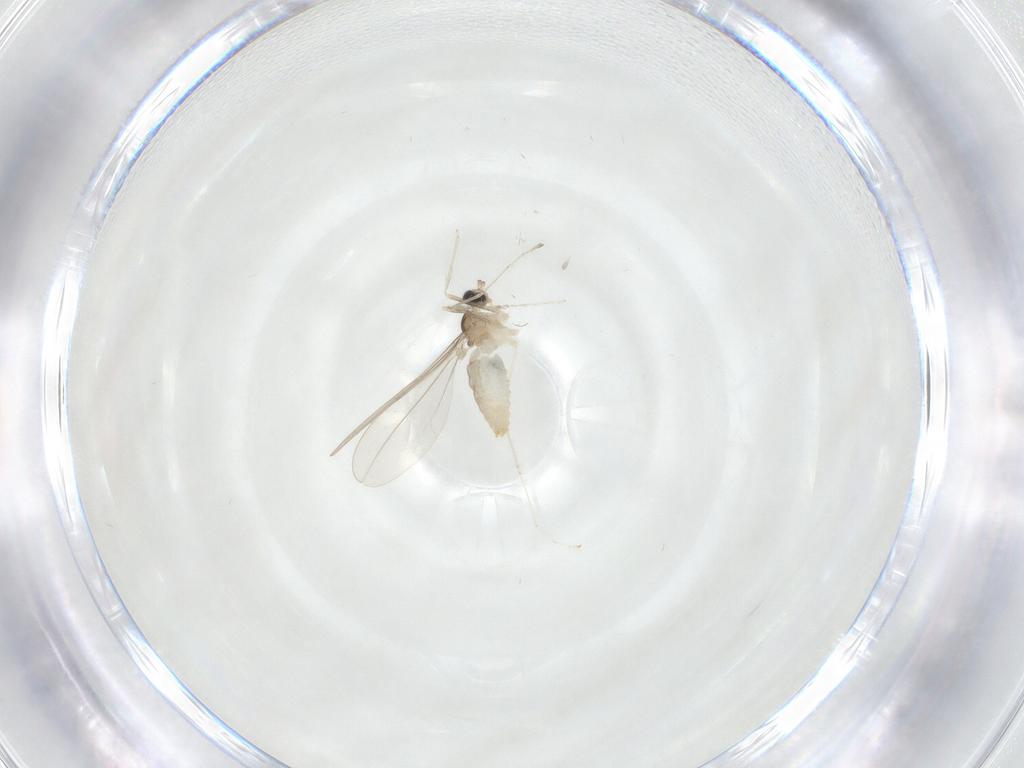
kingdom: Animalia
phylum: Arthropoda
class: Insecta
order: Diptera
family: Cecidomyiidae
